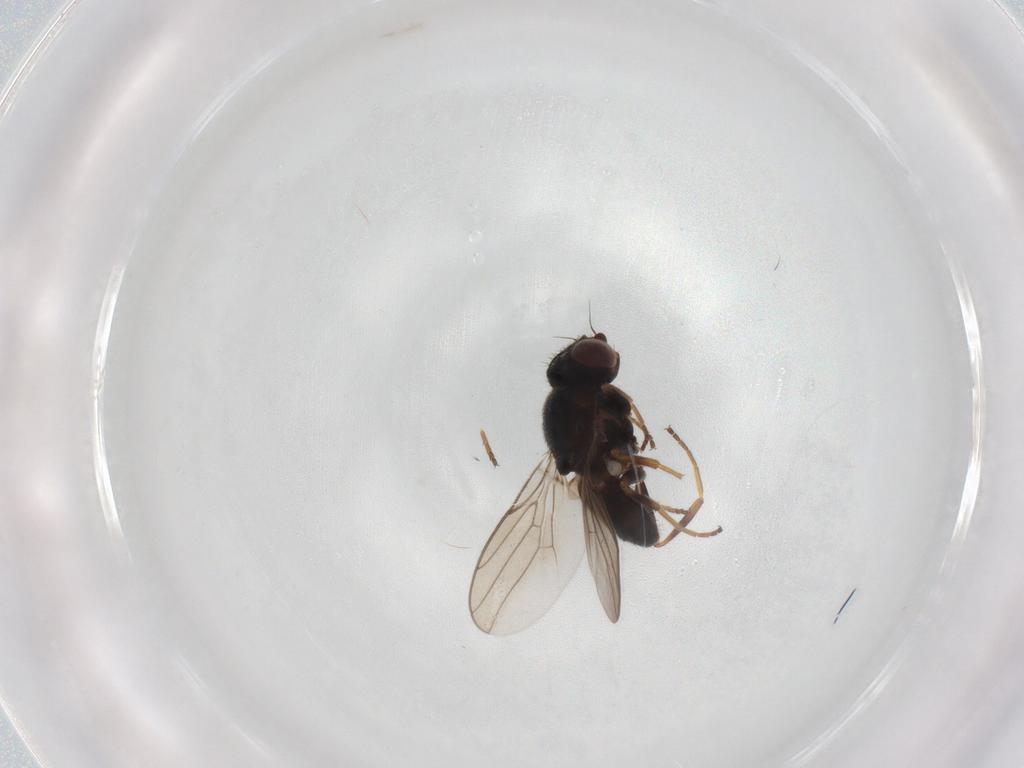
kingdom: Animalia
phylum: Arthropoda
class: Insecta
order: Diptera
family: Chloropidae
